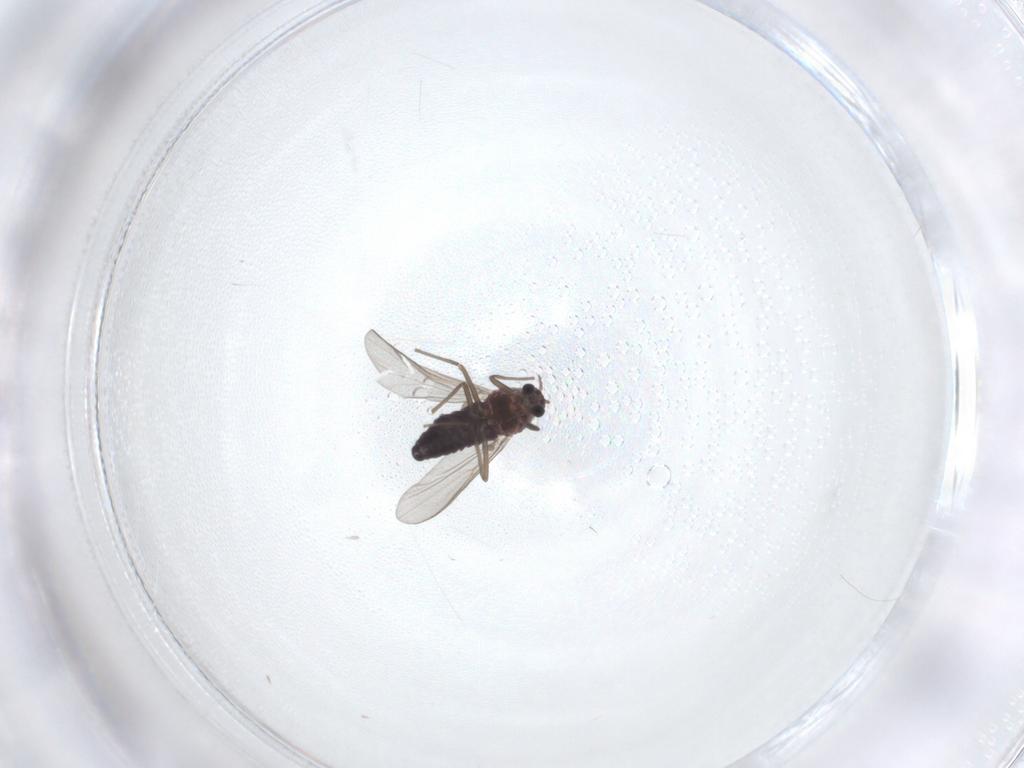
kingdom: Animalia
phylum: Arthropoda
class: Insecta
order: Diptera
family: Chironomidae
